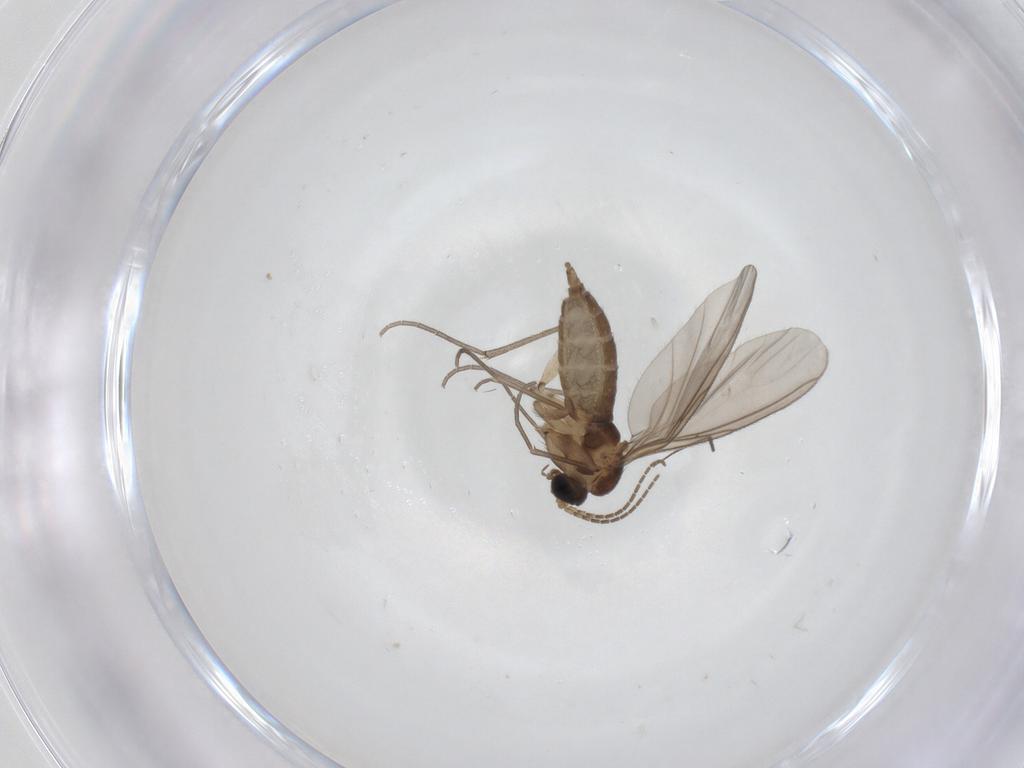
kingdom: Animalia
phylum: Arthropoda
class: Insecta
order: Diptera
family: Chironomidae
